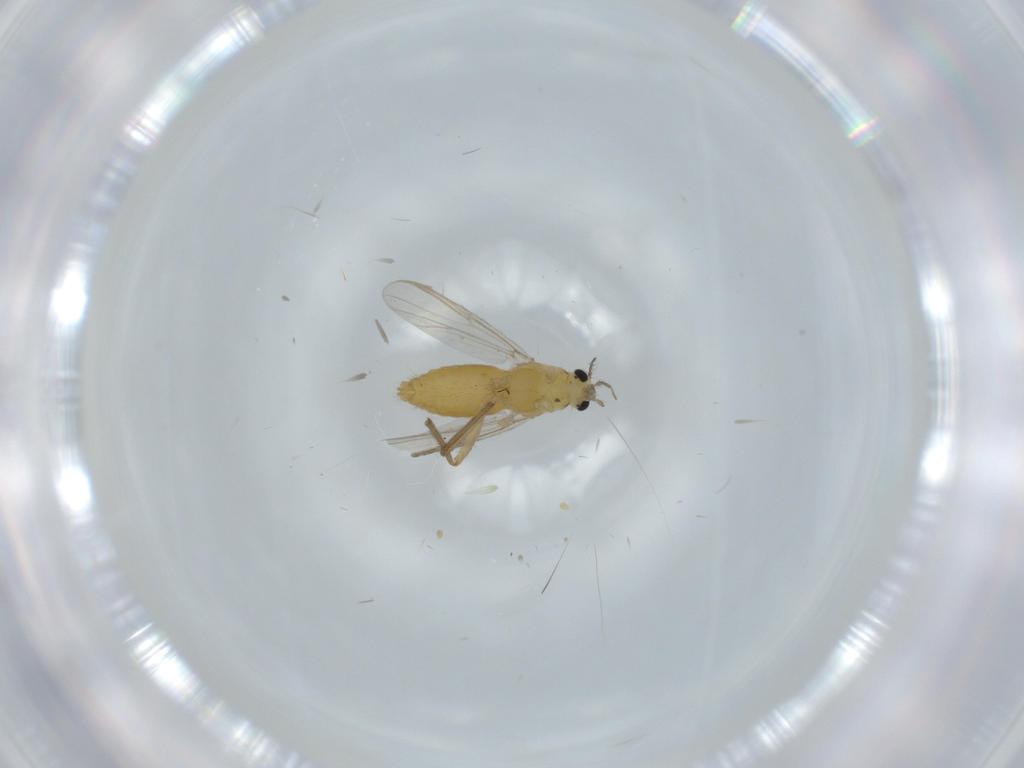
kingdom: Animalia
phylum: Arthropoda
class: Insecta
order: Diptera
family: Chironomidae
